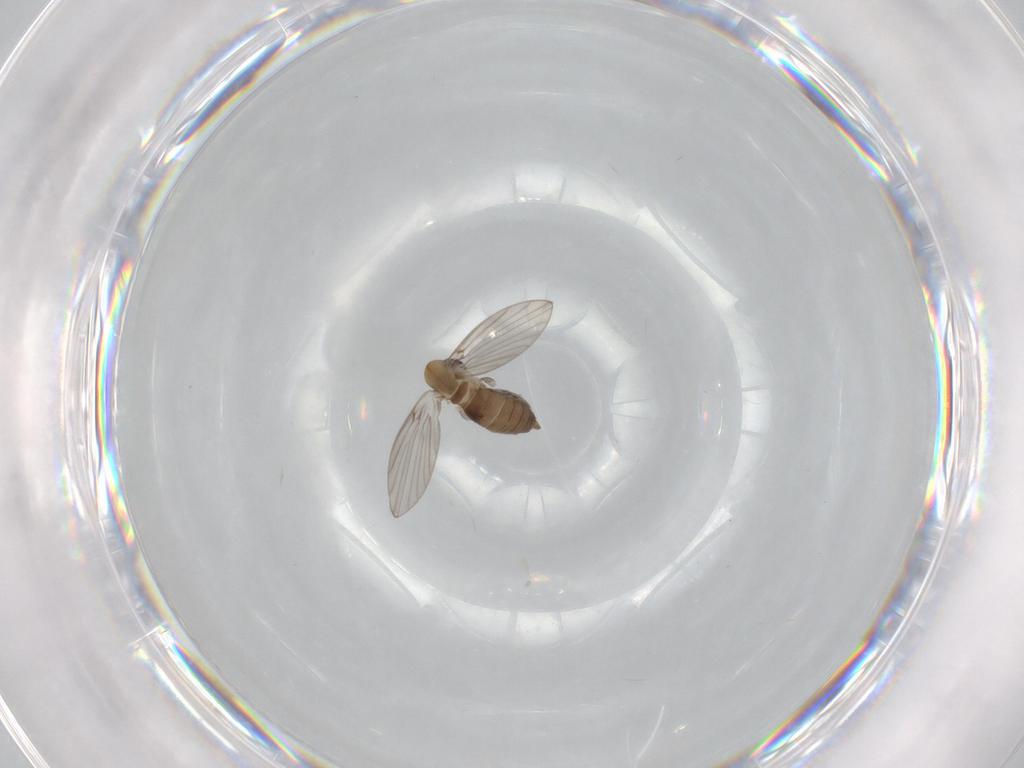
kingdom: Animalia
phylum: Arthropoda
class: Insecta
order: Diptera
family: Psychodidae
